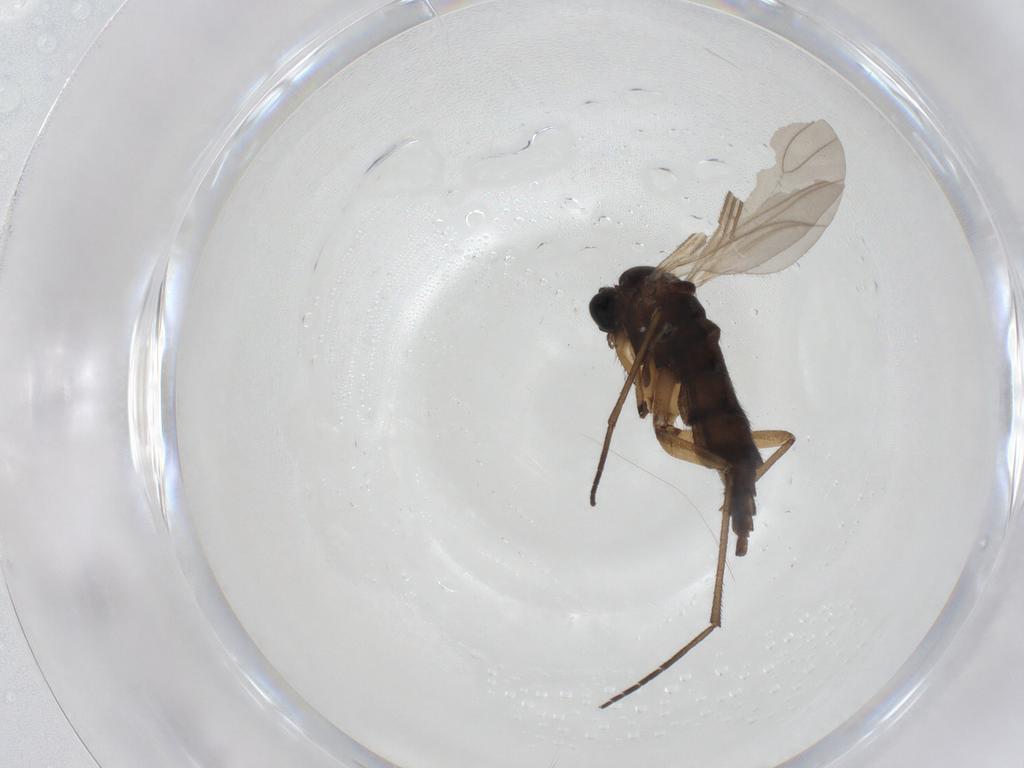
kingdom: Animalia
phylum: Arthropoda
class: Insecta
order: Diptera
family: Sciaridae
